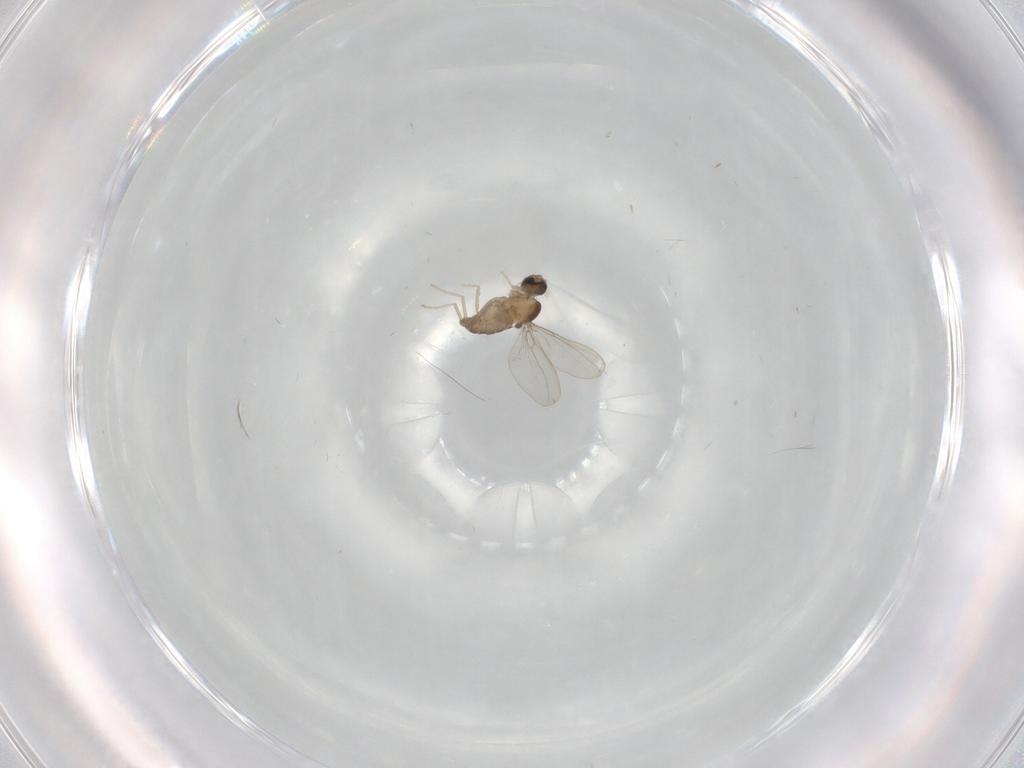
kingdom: Animalia
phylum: Arthropoda
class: Insecta
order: Diptera
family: Cecidomyiidae
